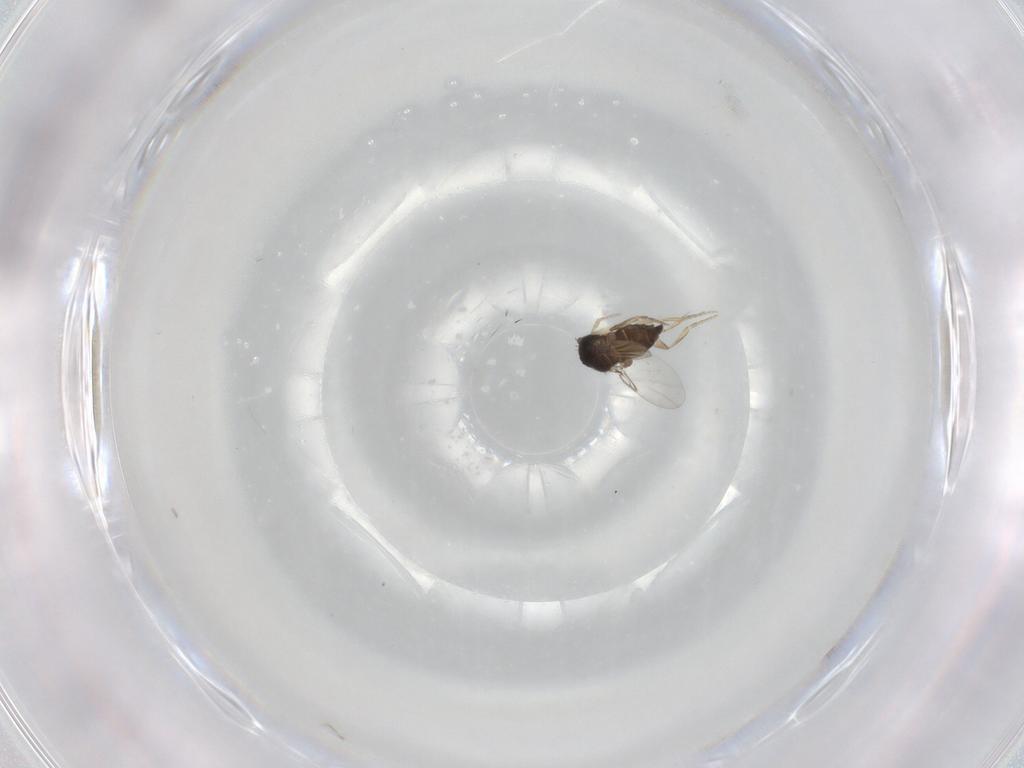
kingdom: Animalia
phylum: Arthropoda
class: Insecta
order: Diptera
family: Phoridae
